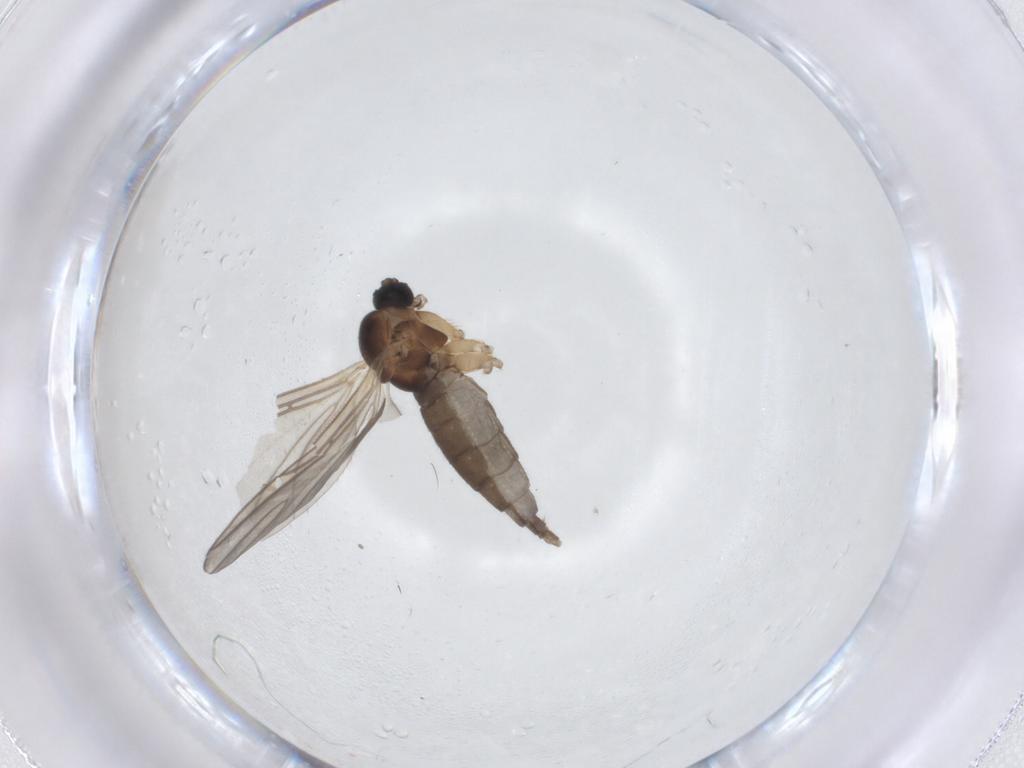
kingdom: Animalia
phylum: Arthropoda
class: Insecta
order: Diptera
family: Sciaridae
